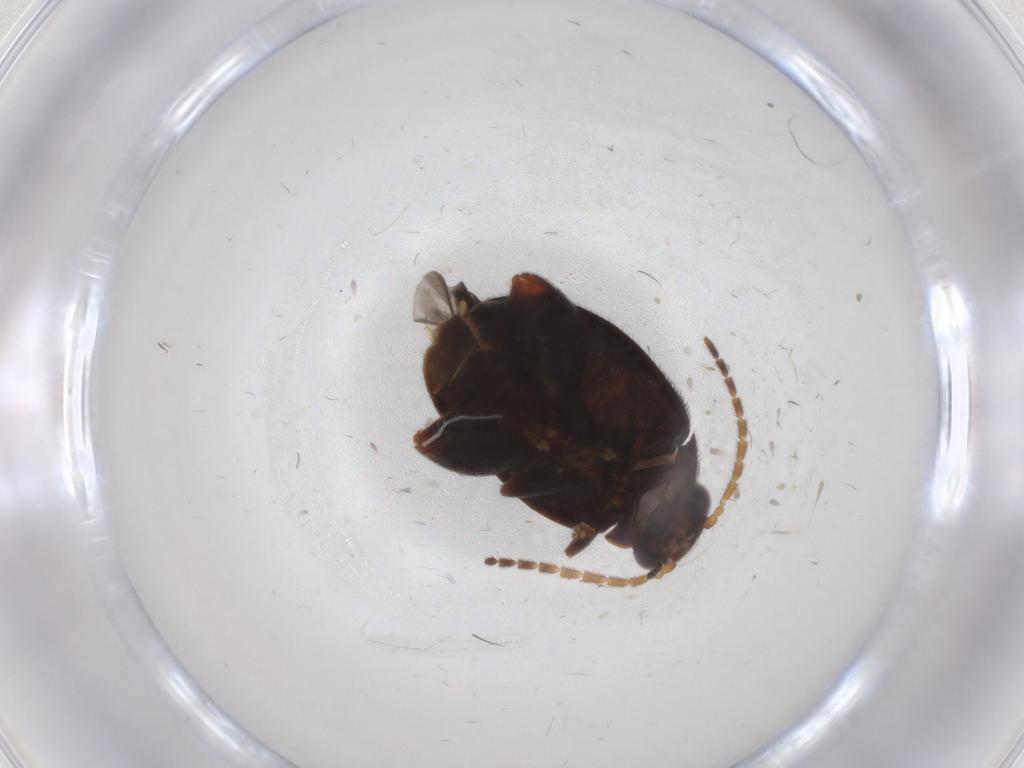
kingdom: Animalia
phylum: Arthropoda
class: Insecta
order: Coleoptera
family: Scirtidae
